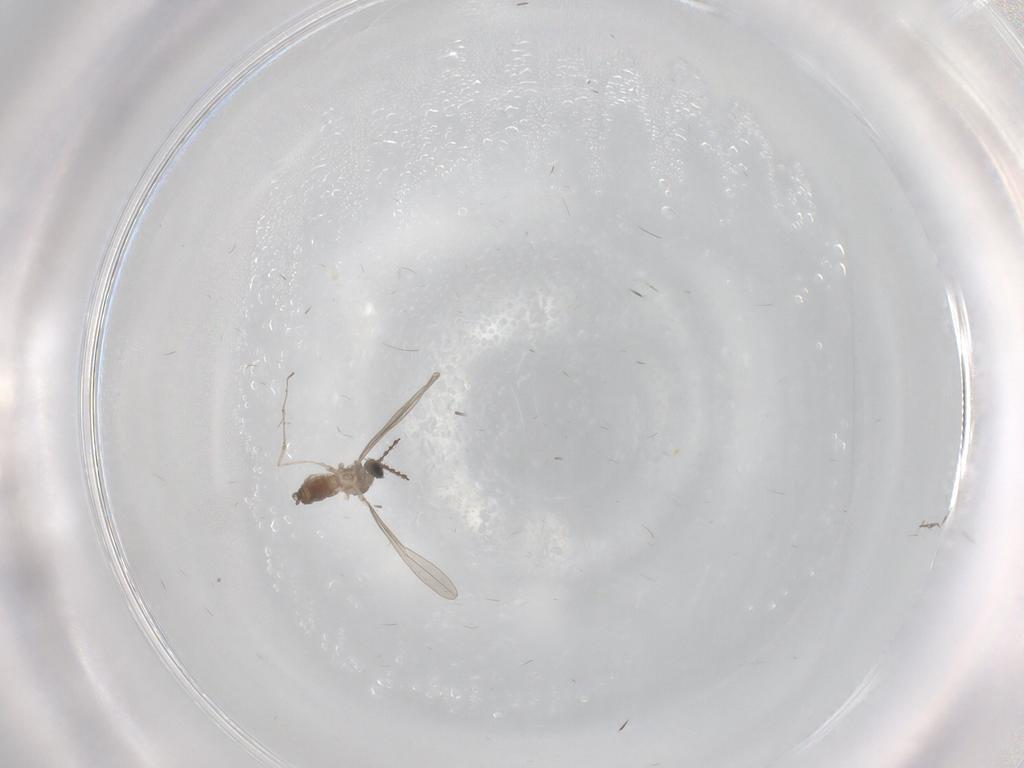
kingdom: Animalia
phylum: Arthropoda
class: Insecta
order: Diptera
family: Cecidomyiidae
